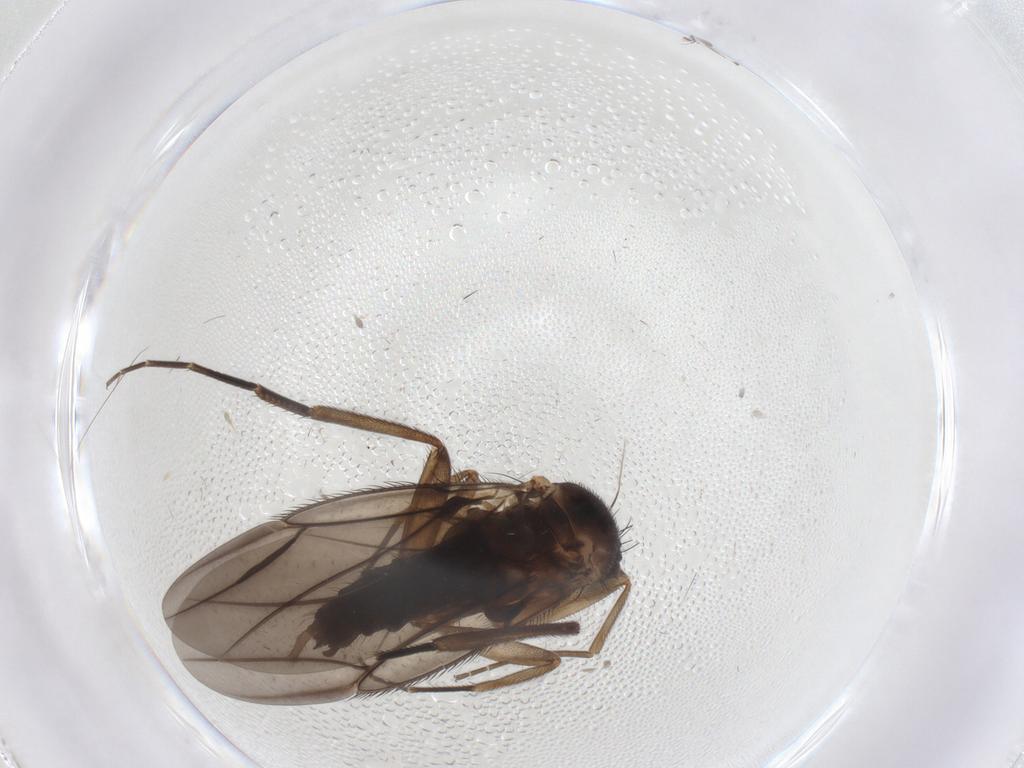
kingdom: Animalia
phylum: Arthropoda
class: Insecta
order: Diptera
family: Phoridae
